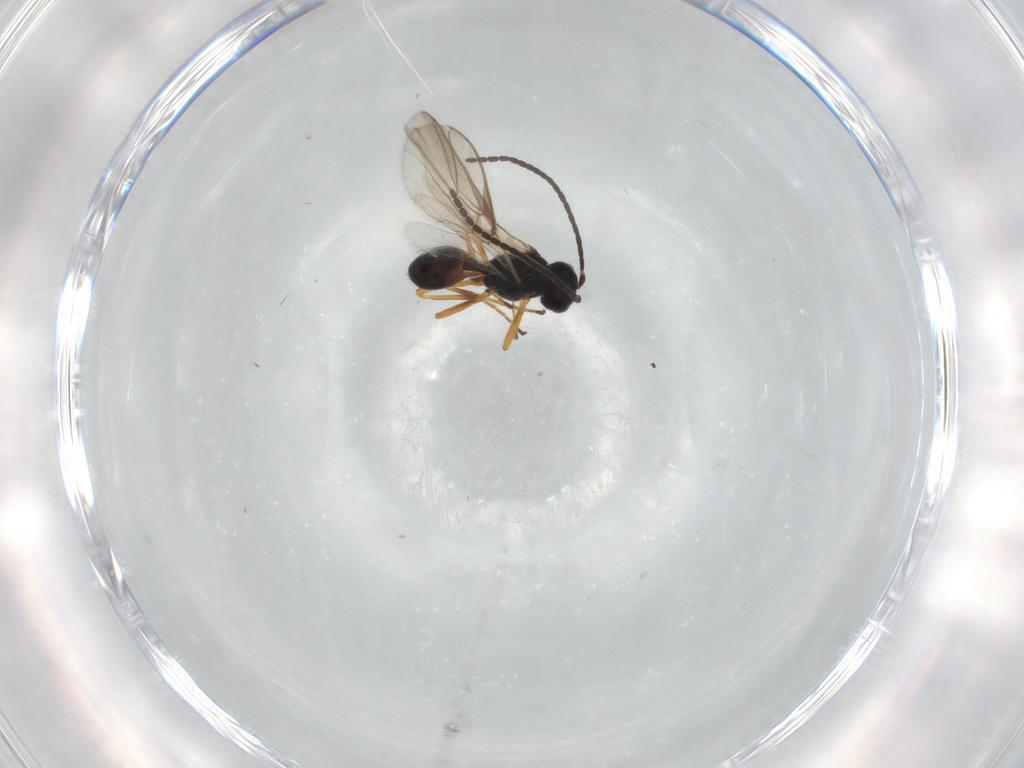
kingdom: Animalia
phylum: Arthropoda
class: Insecta
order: Hymenoptera
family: Braconidae
